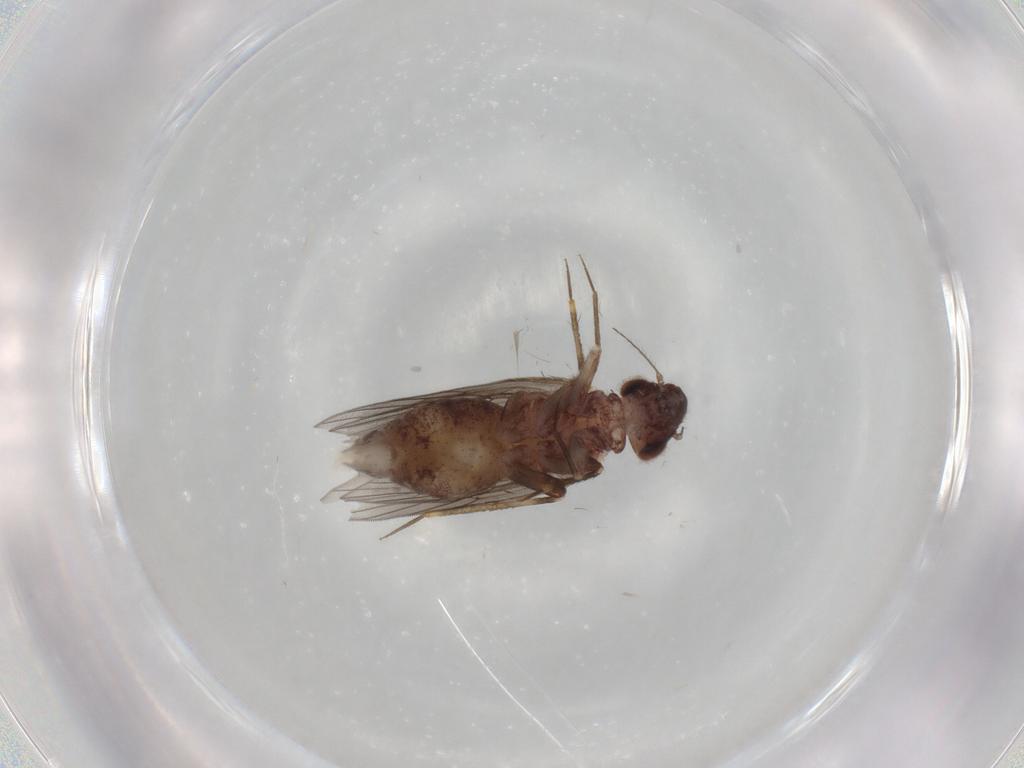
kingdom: Animalia
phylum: Arthropoda
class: Insecta
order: Psocodea
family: Lepidopsocidae
